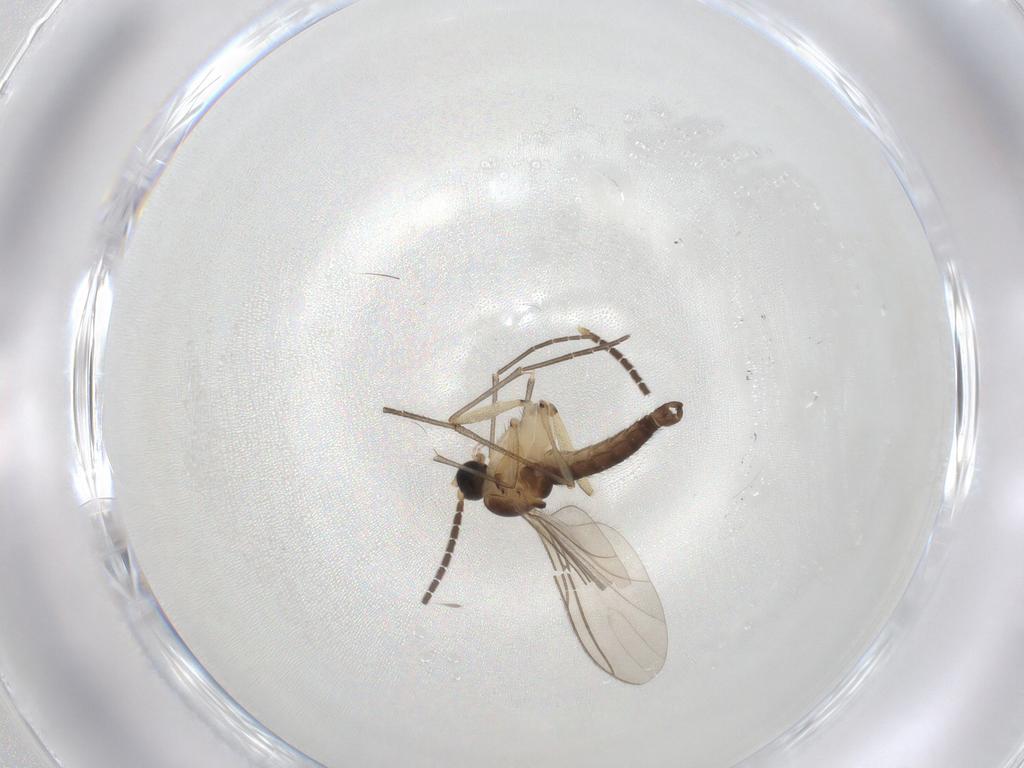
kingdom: Animalia
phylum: Arthropoda
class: Insecta
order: Diptera
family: Sciaridae
